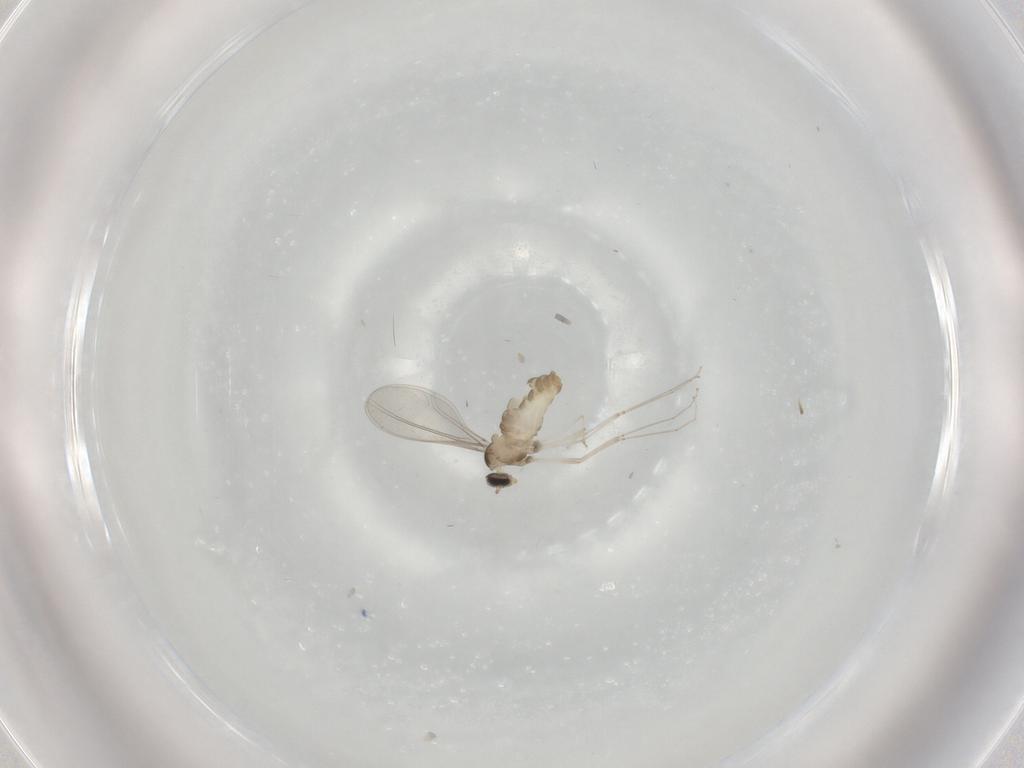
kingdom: Animalia
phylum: Arthropoda
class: Insecta
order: Diptera
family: Cecidomyiidae
